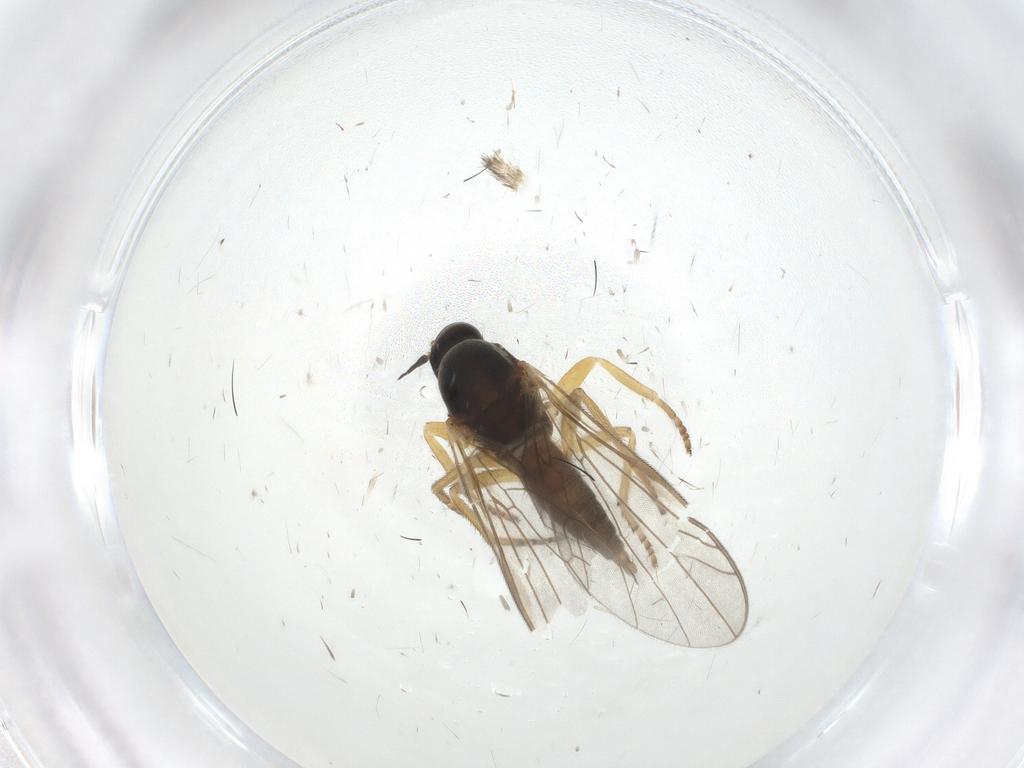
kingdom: Animalia
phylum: Arthropoda
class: Insecta
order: Diptera
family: Empididae
